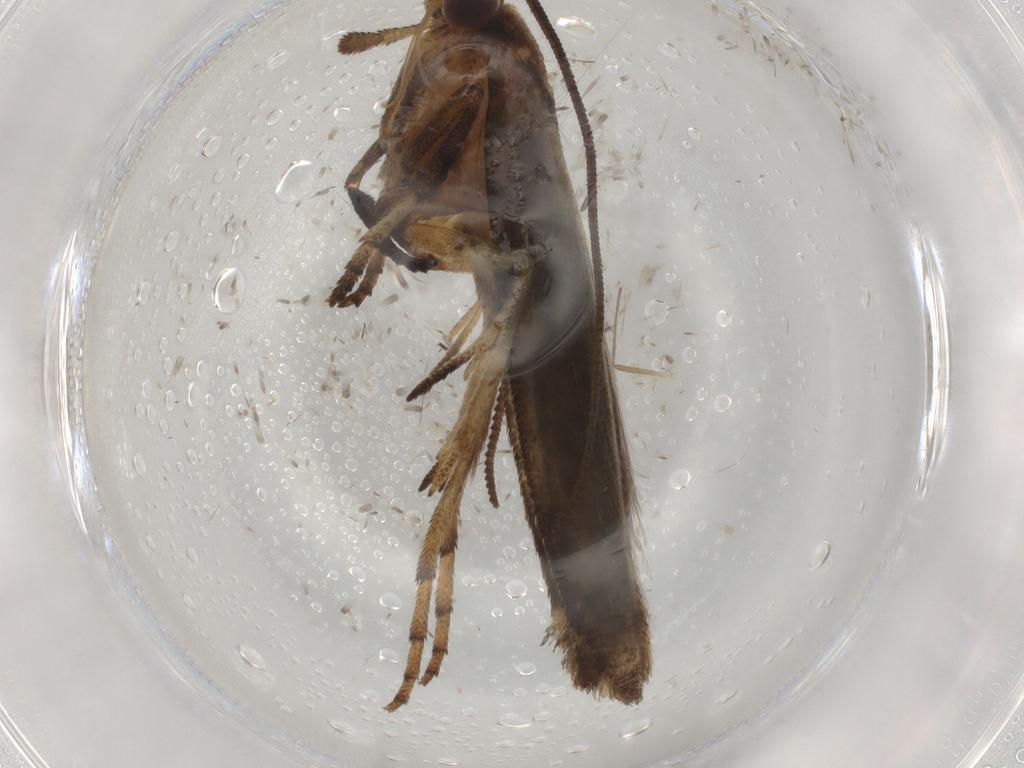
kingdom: Animalia
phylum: Arthropoda
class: Insecta
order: Lepidoptera
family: Yponomeutidae
